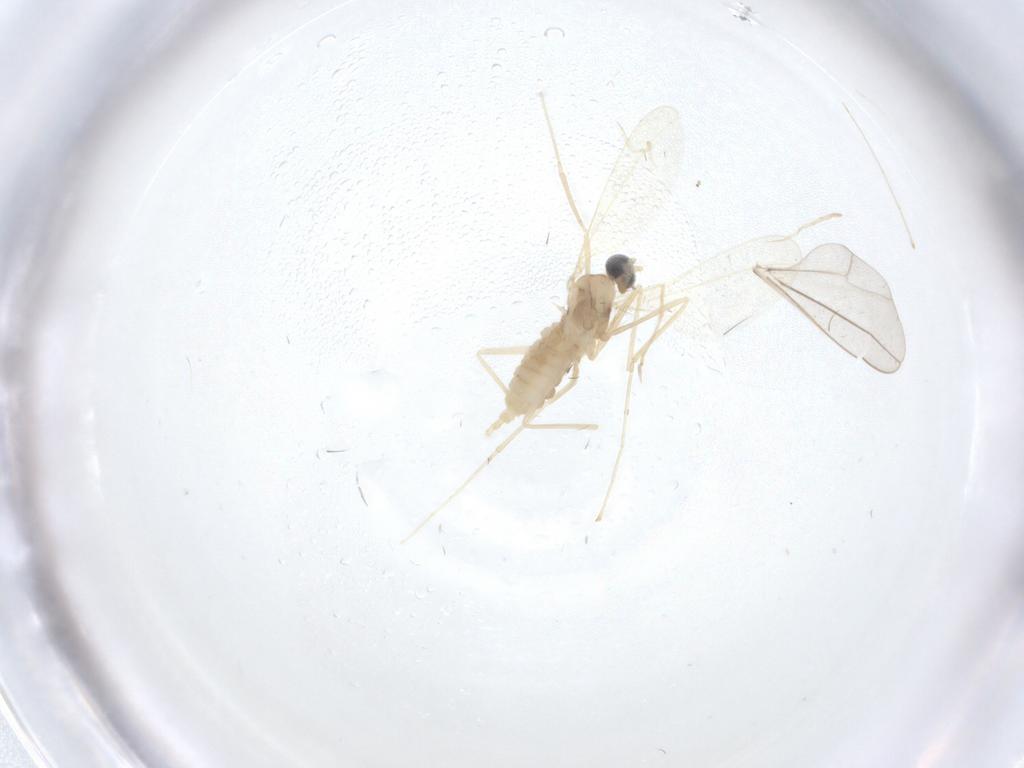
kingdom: Animalia
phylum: Arthropoda
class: Insecta
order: Diptera
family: Cecidomyiidae
